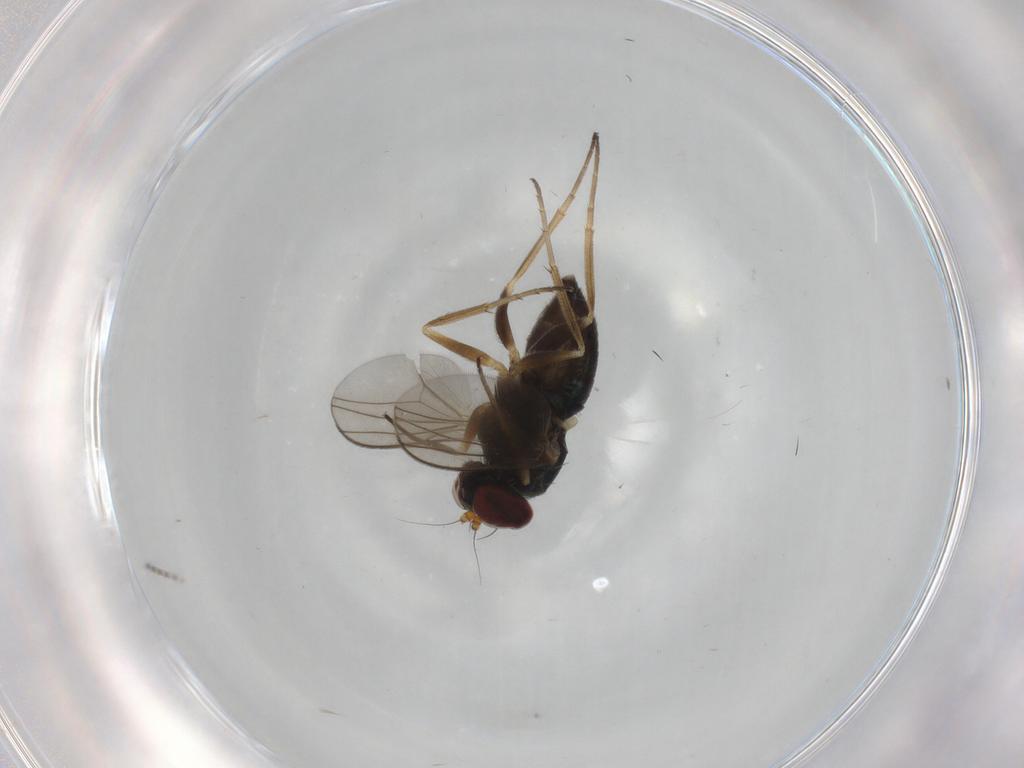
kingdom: Animalia
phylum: Arthropoda
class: Insecta
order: Diptera
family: Dolichopodidae
